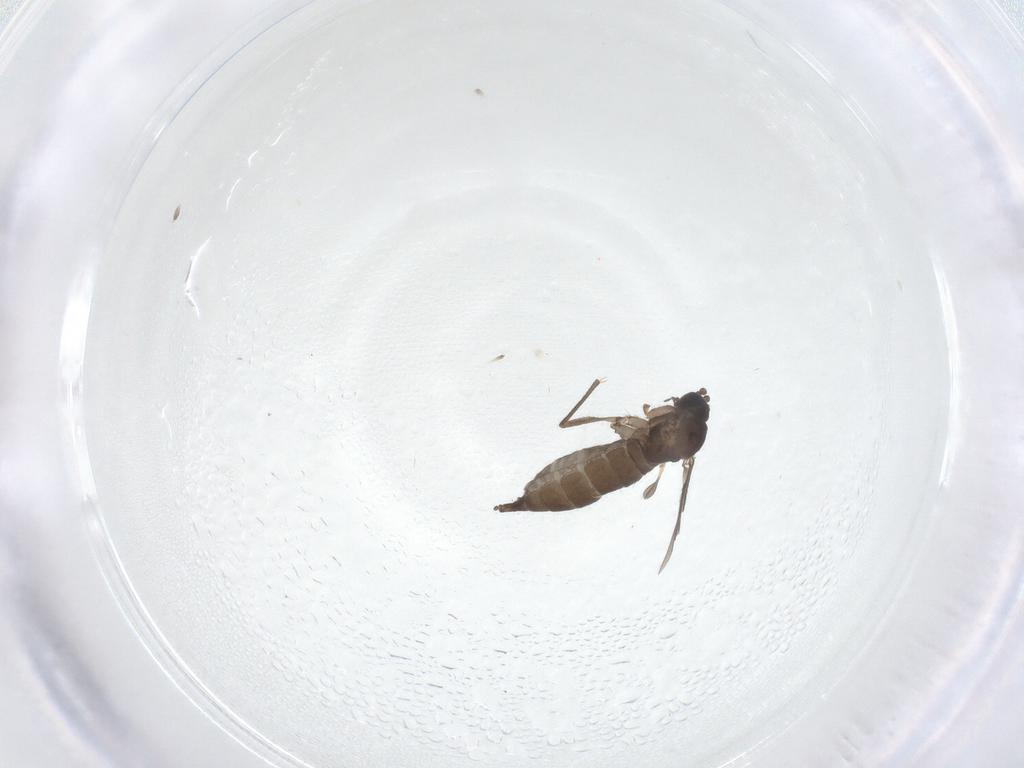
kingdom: Animalia
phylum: Arthropoda
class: Insecta
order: Diptera
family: Sciaridae
